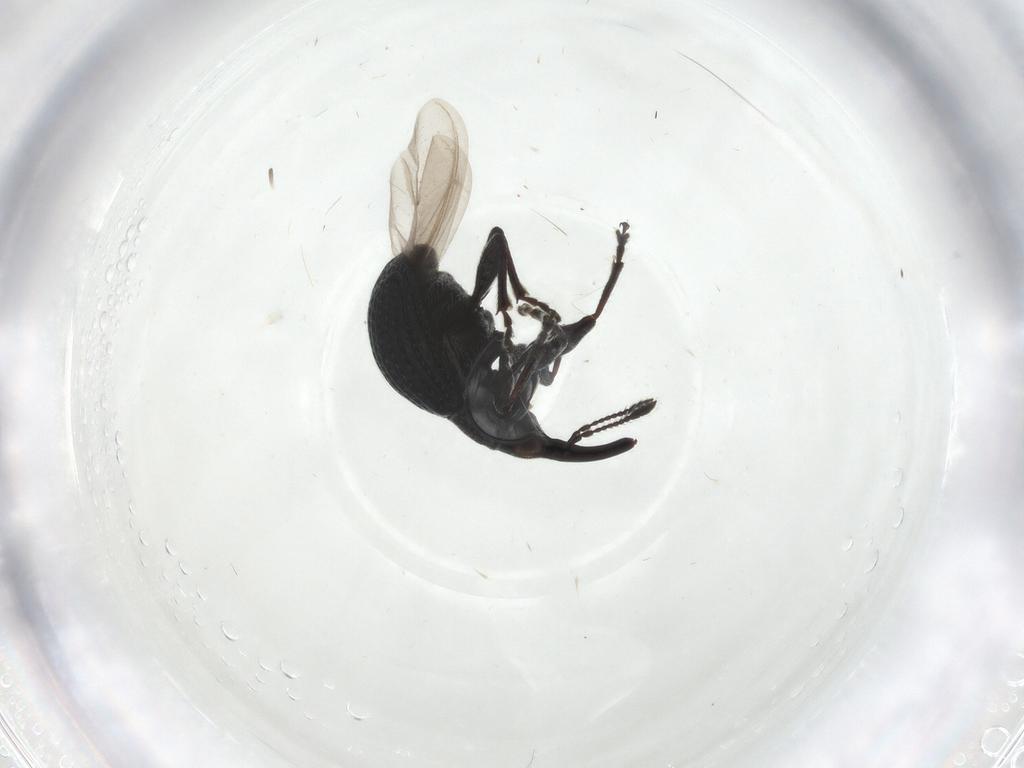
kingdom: Animalia
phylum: Arthropoda
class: Insecta
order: Coleoptera
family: Brentidae
